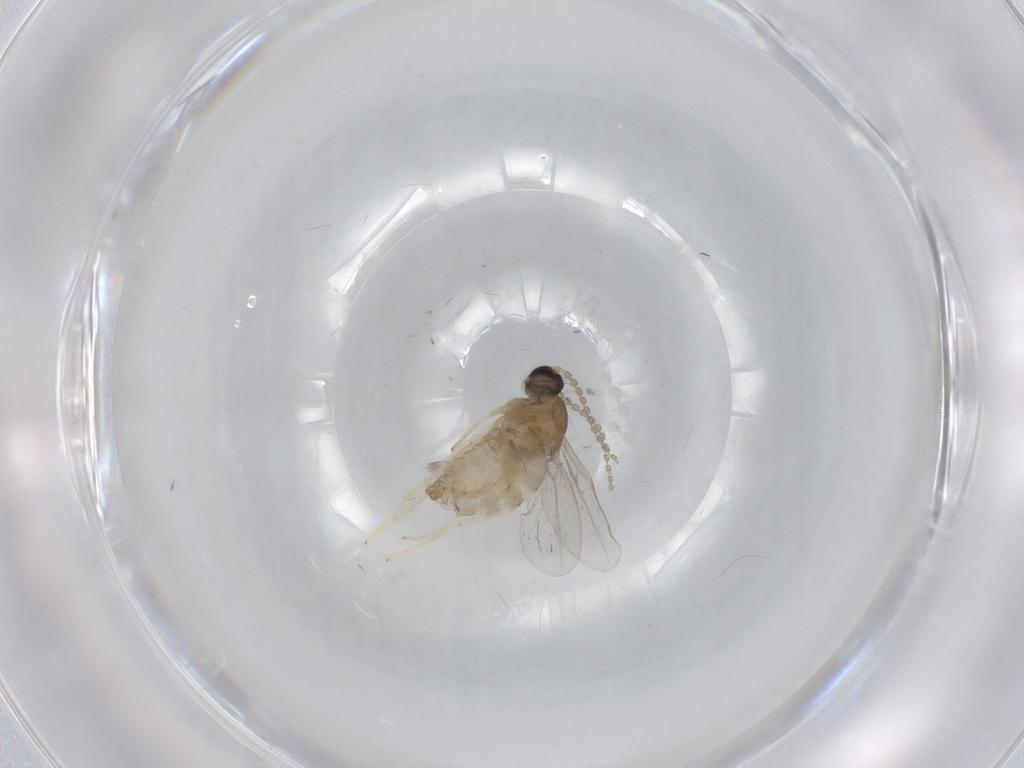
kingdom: Animalia
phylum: Arthropoda
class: Insecta
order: Diptera
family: Cecidomyiidae
